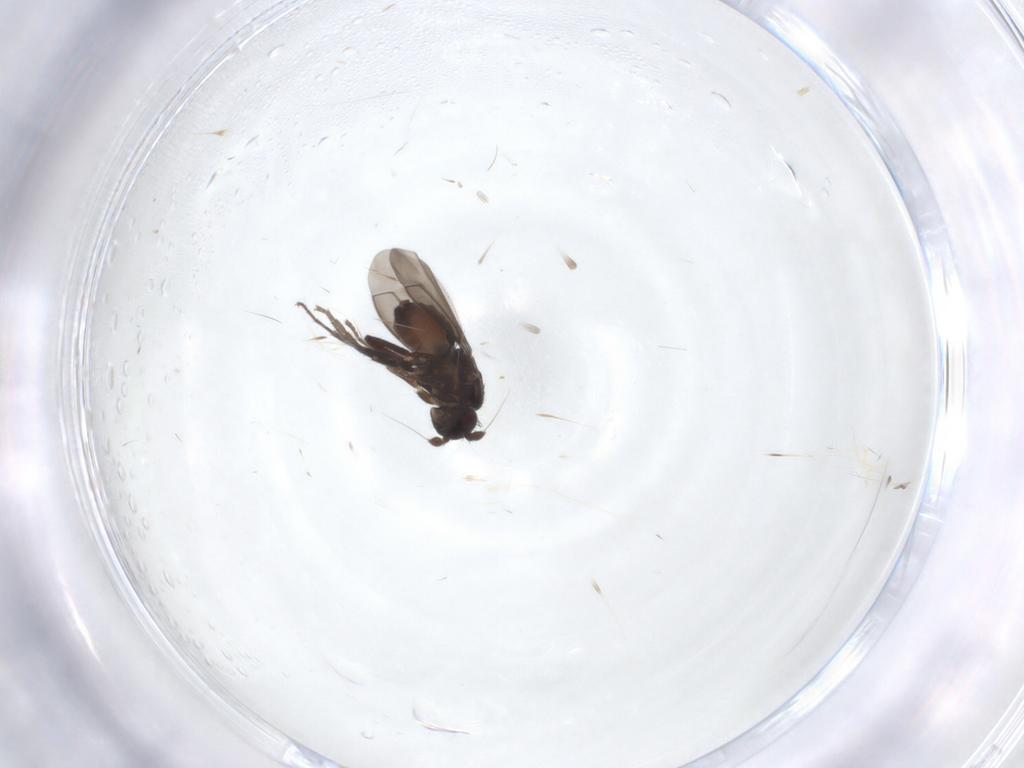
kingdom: Animalia
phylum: Arthropoda
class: Insecta
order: Diptera
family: Sphaeroceridae
